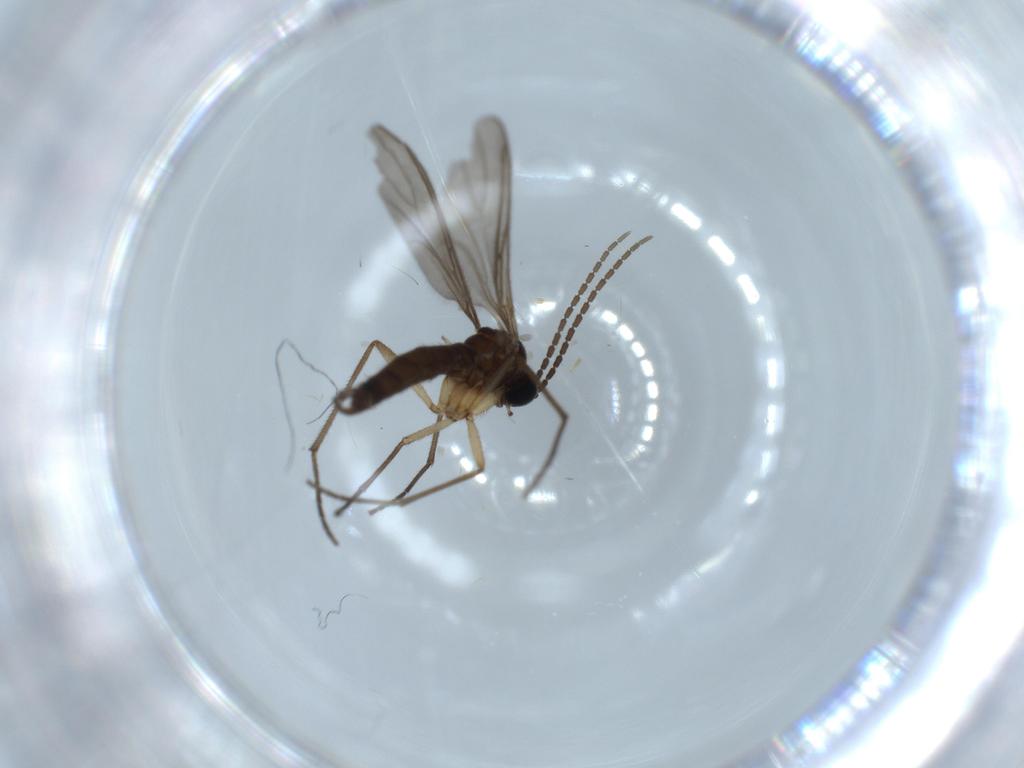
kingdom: Animalia
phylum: Arthropoda
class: Insecta
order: Diptera
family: Sciaridae
